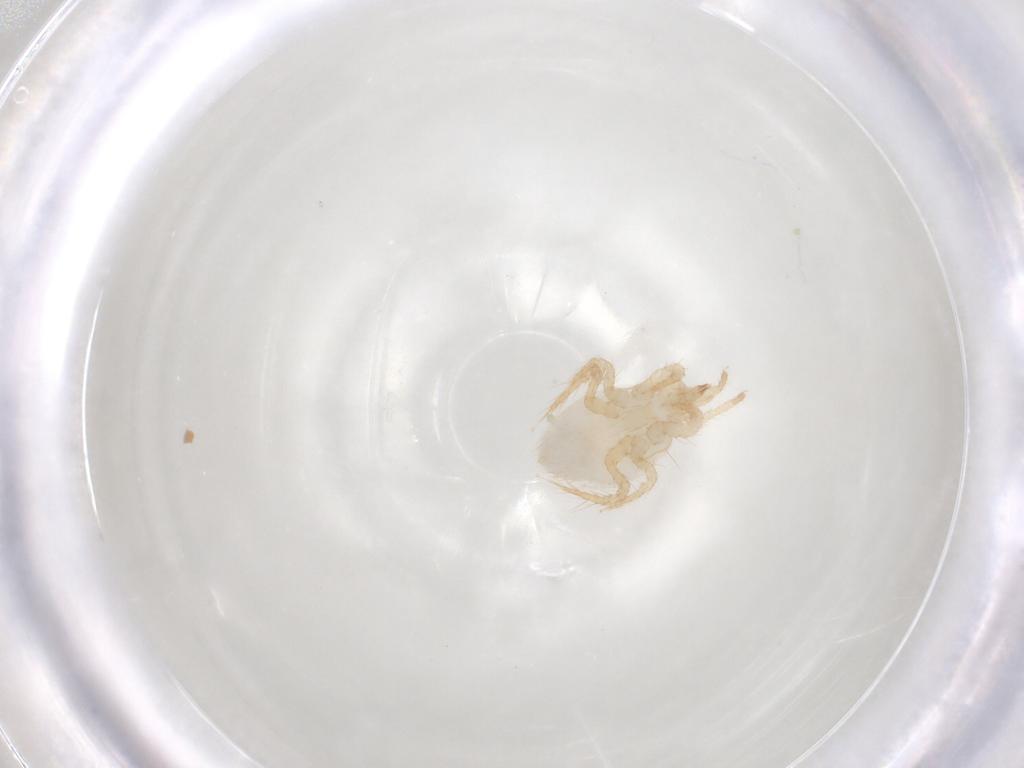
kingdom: Animalia
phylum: Arthropoda
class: Arachnida
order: Mesostigmata
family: Parasitidae
